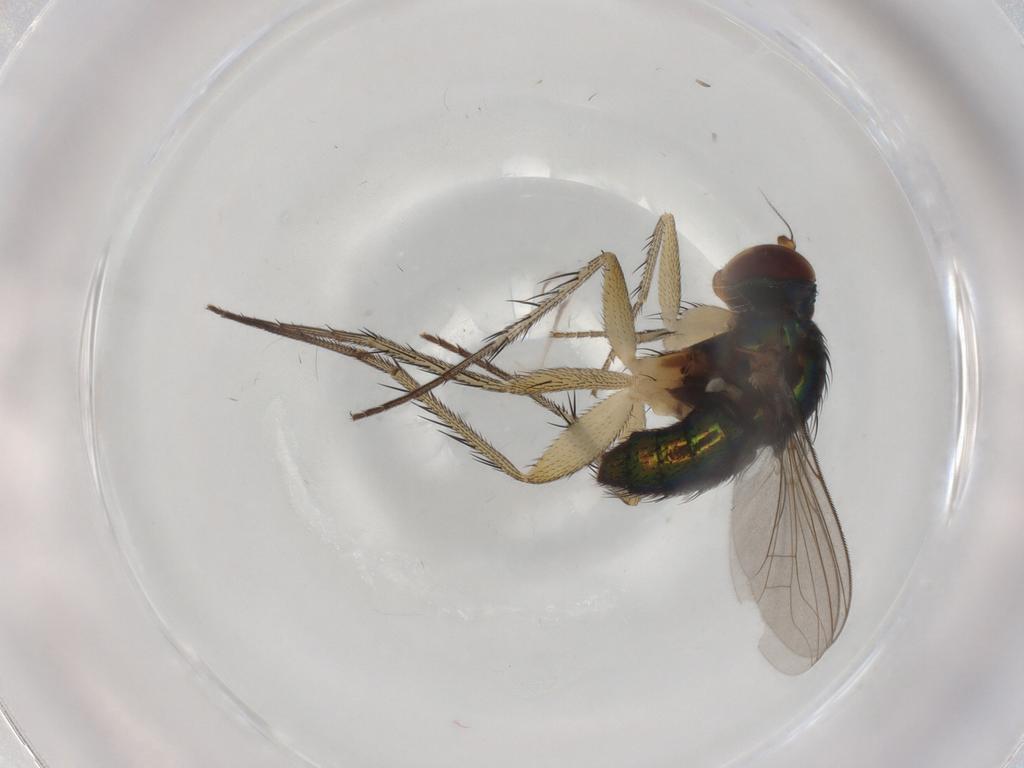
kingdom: Animalia
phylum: Arthropoda
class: Insecta
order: Diptera
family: Dolichopodidae
